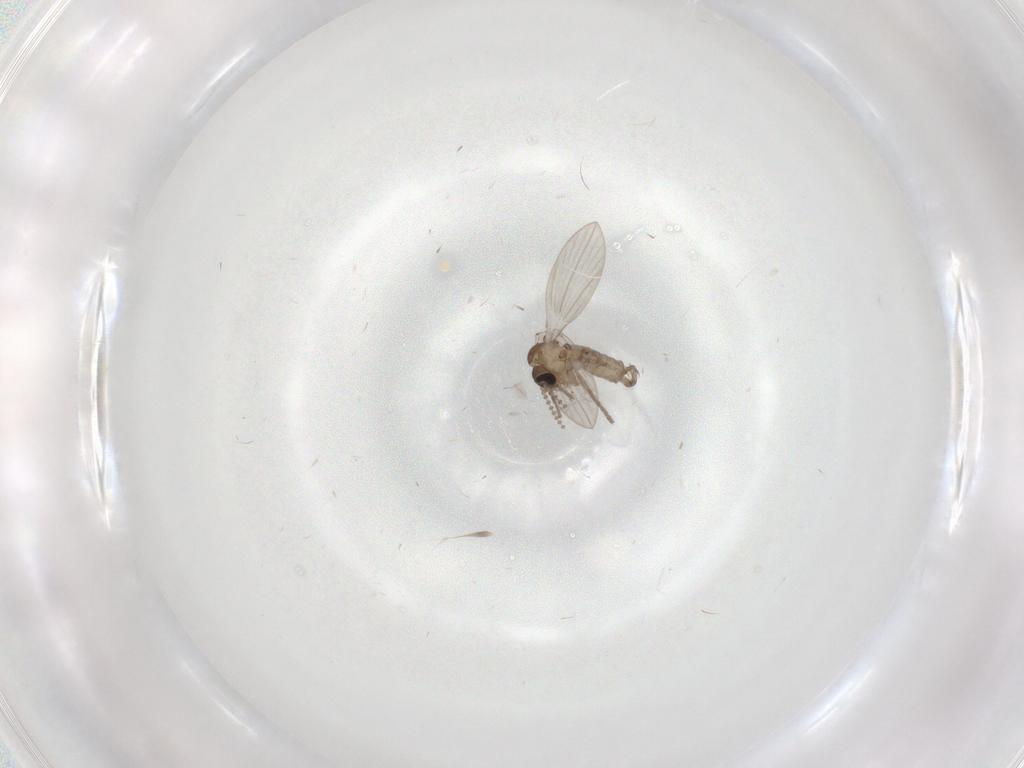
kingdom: Animalia
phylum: Arthropoda
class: Insecta
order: Diptera
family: Psychodidae
